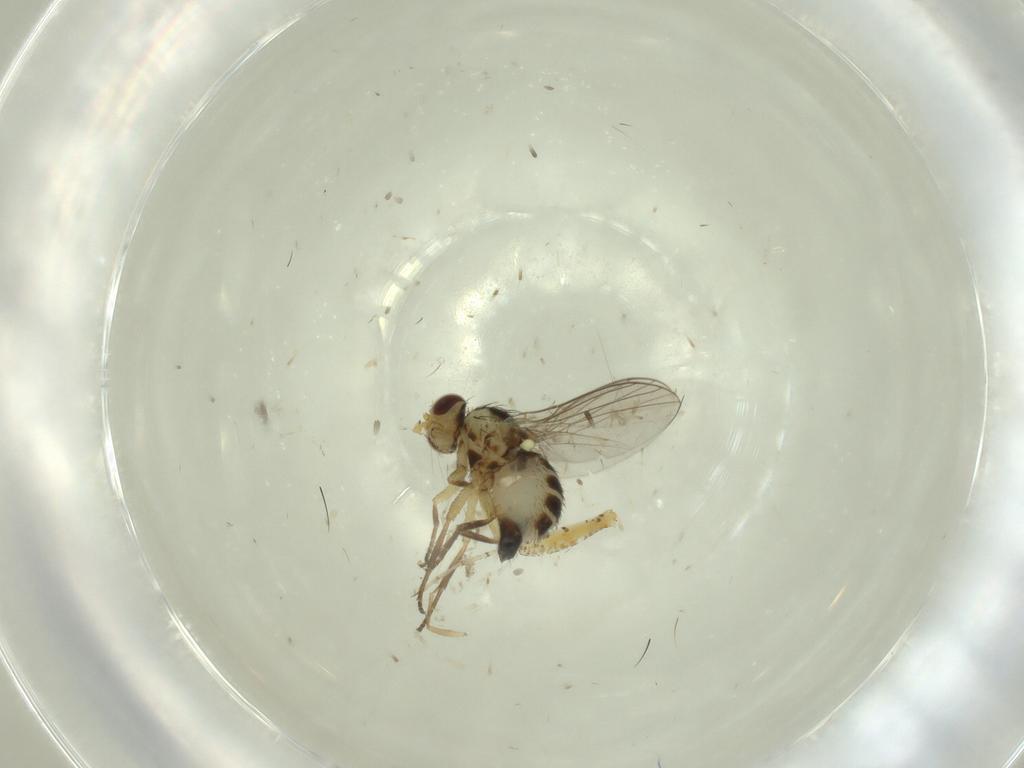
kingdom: Animalia
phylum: Arthropoda
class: Insecta
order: Diptera
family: Agromyzidae
